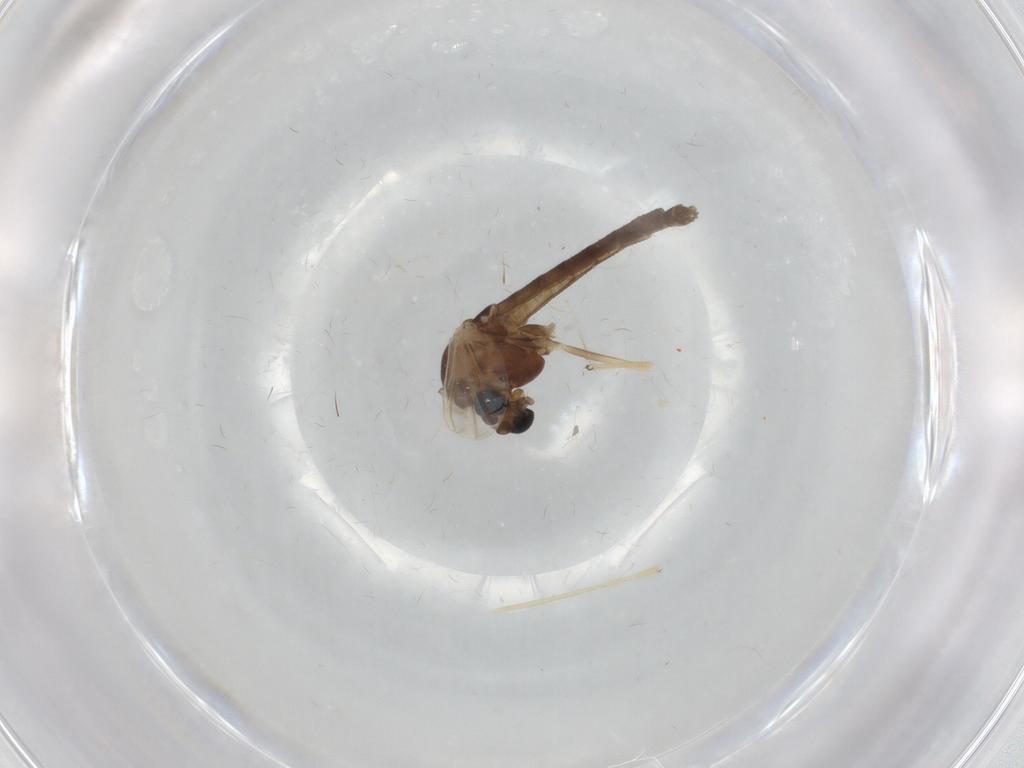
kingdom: Animalia
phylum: Arthropoda
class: Insecta
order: Diptera
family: Chironomidae
